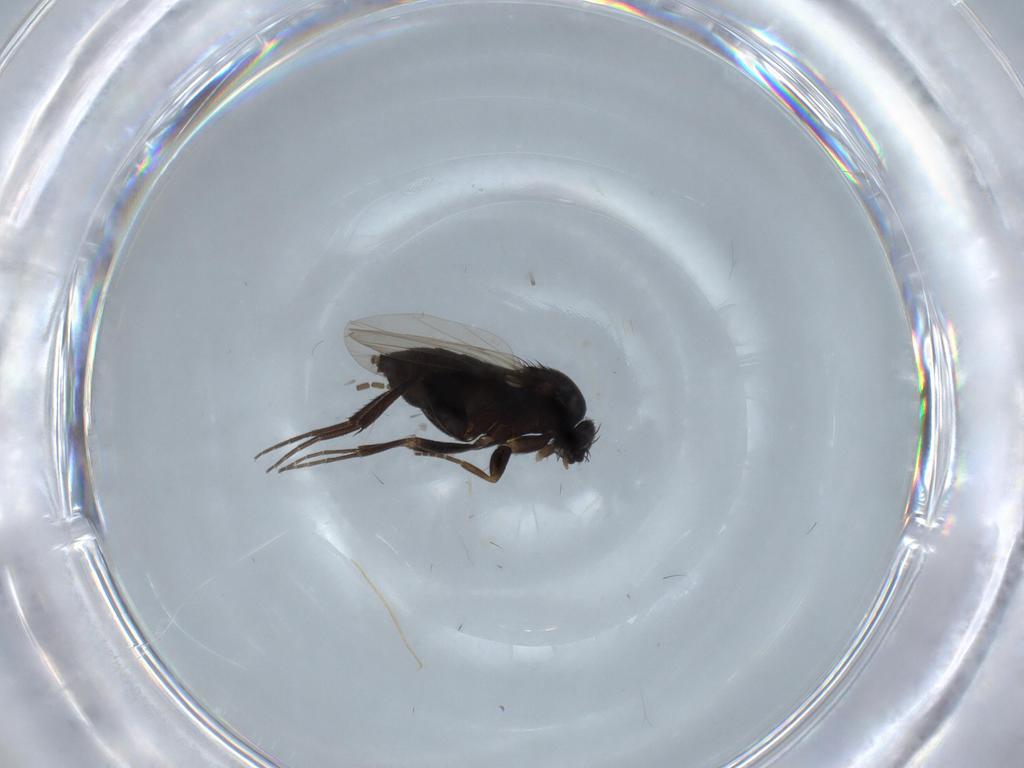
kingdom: Animalia
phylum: Arthropoda
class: Insecta
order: Diptera
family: Phoridae
